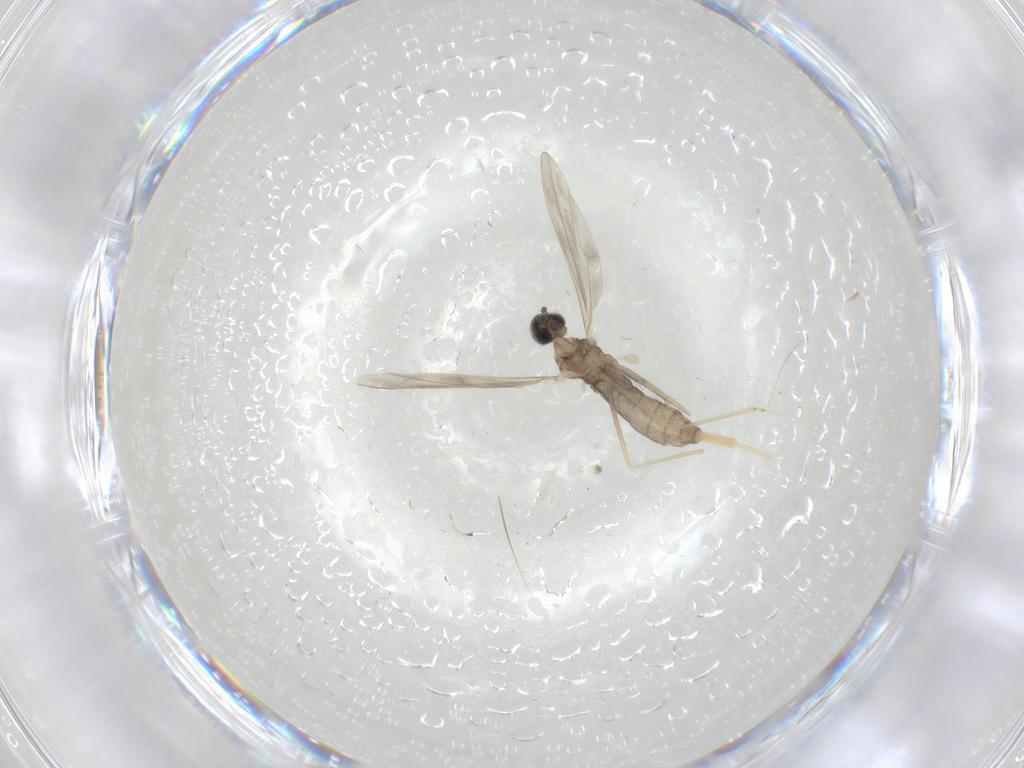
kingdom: Animalia
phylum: Arthropoda
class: Insecta
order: Diptera
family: Cecidomyiidae
